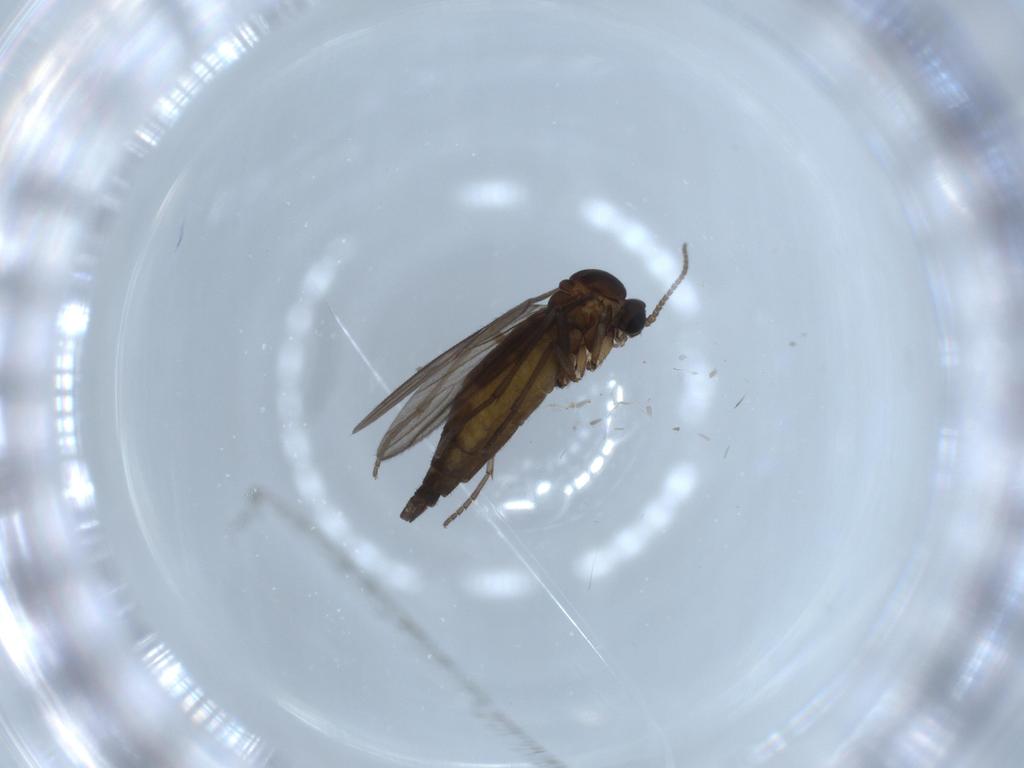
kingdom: Animalia
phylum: Arthropoda
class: Insecta
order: Diptera
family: Sciaridae
